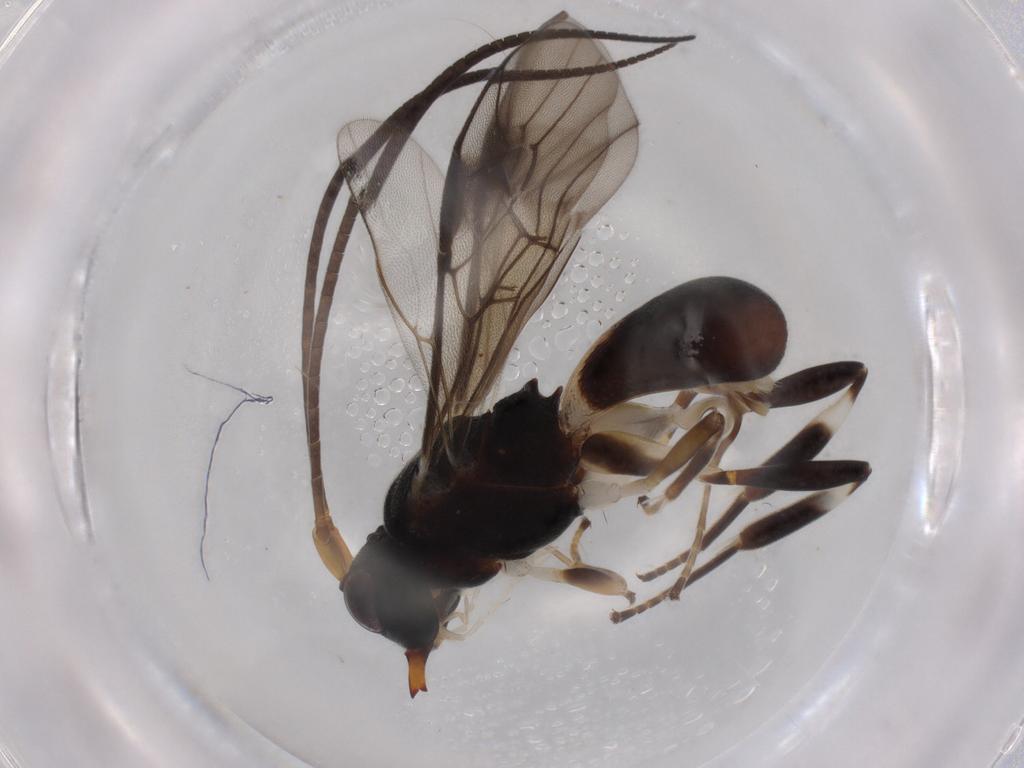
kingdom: Animalia
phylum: Arthropoda
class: Insecta
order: Hymenoptera
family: Braconidae
